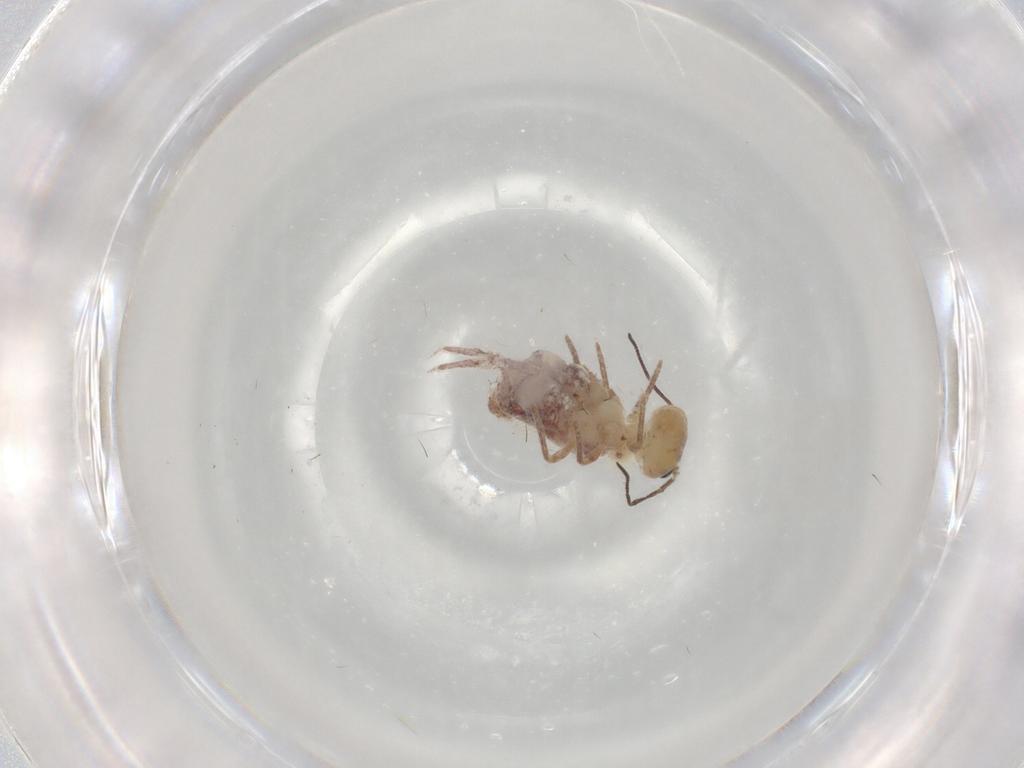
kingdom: Animalia
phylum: Arthropoda
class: Collembola
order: Symphypleona
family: Sminthuridae
